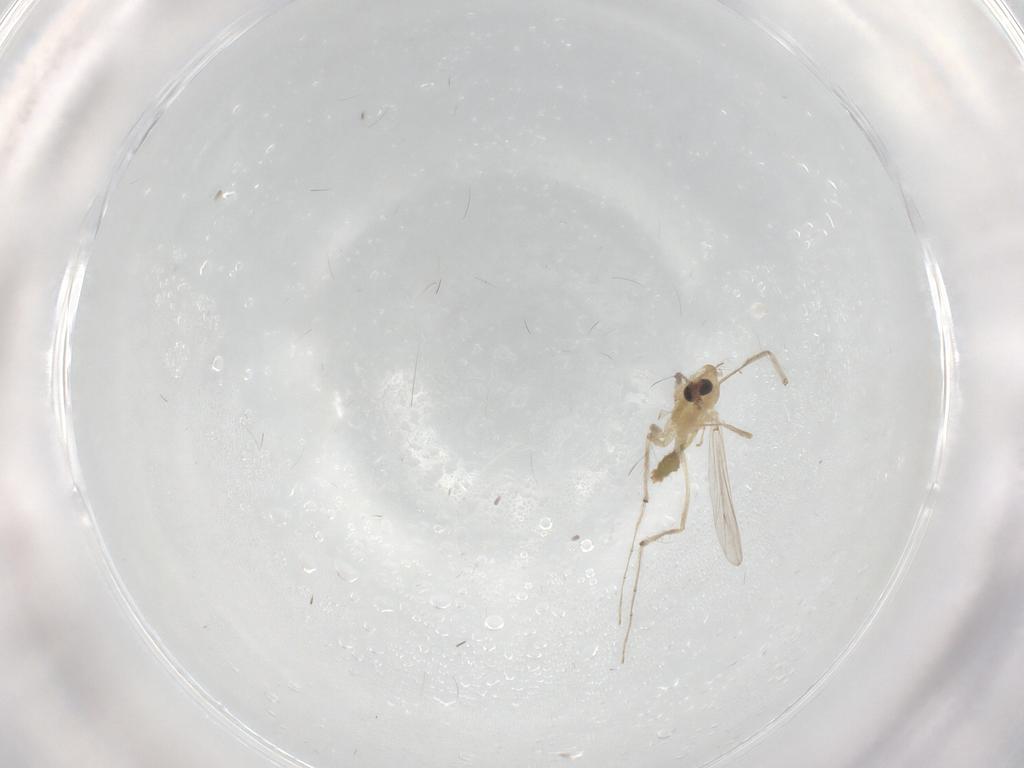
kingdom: Animalia
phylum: Arthropoda
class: Insecta
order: Diptera
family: Chironomidae
